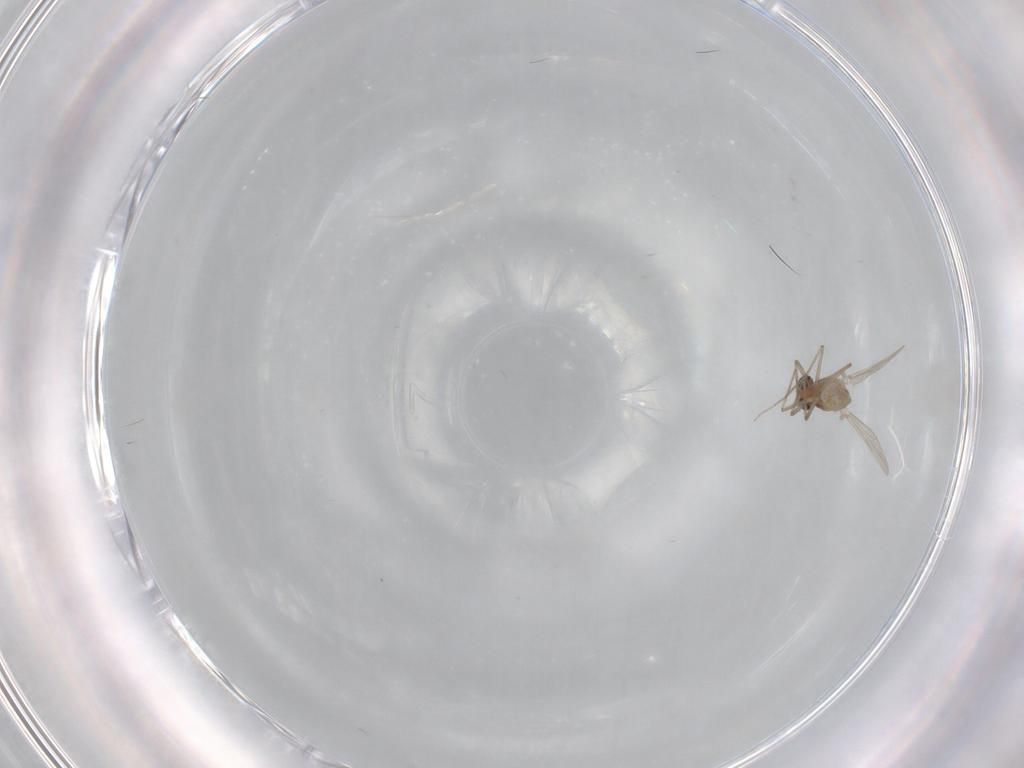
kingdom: Animalia
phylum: Arthropoda
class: Insecta
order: Diptera
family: Chironomidae
